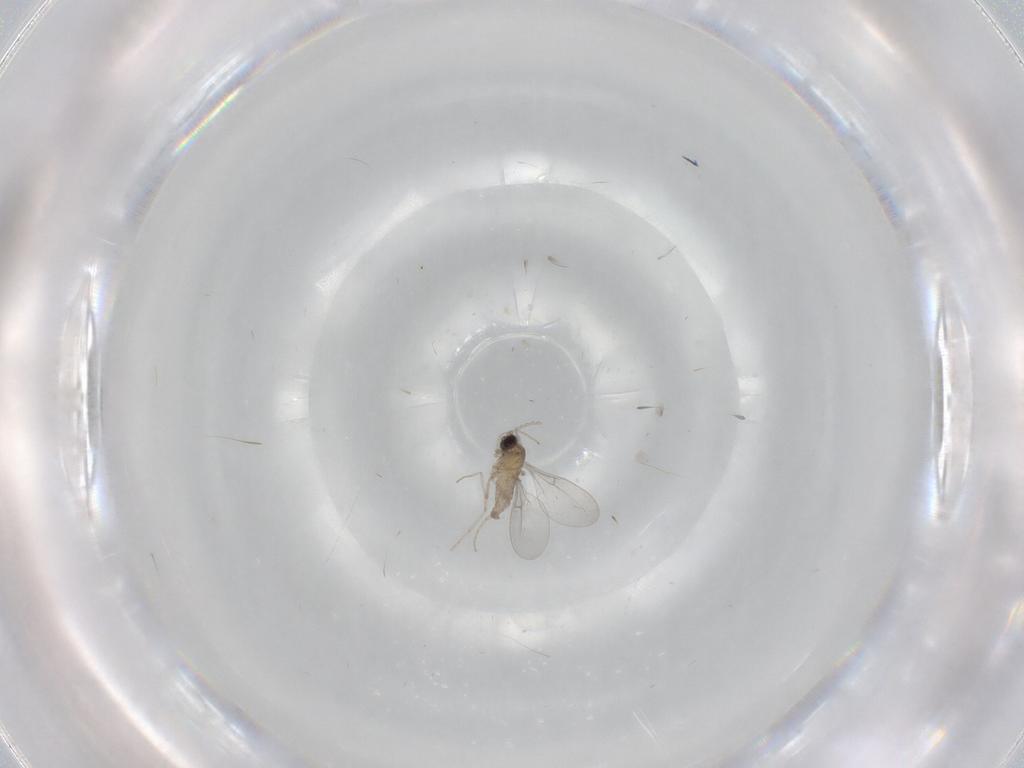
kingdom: Animalia
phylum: Arthropoda
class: Insecta
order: Diptera
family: Cecidomyiidae
